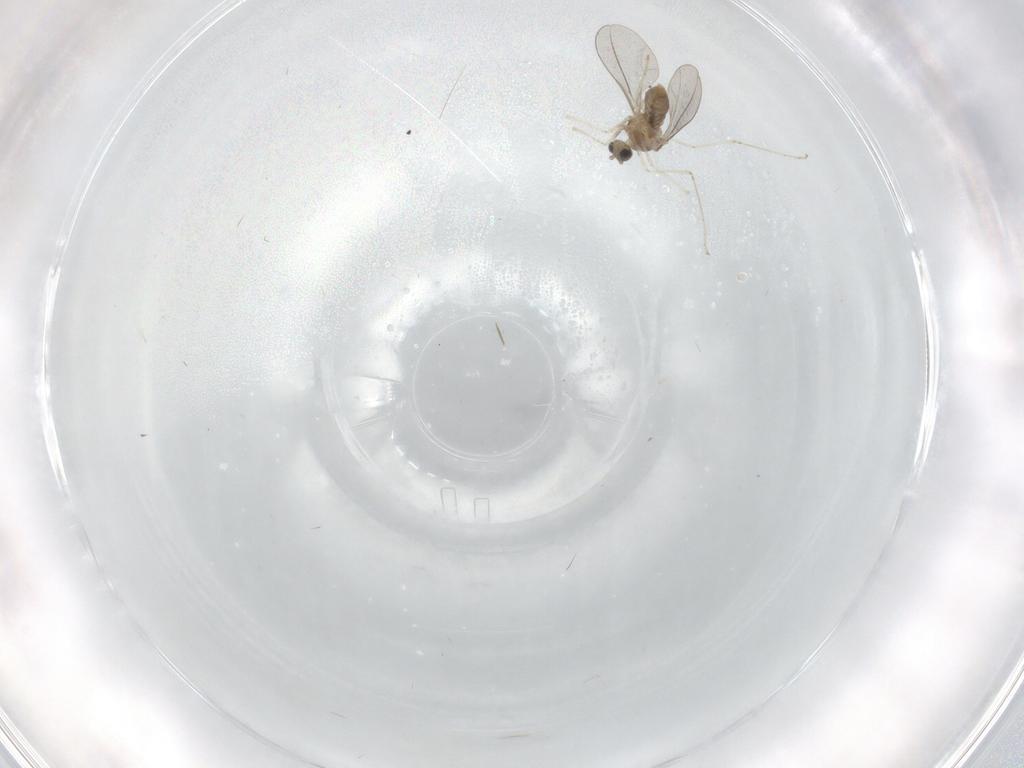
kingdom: Animalia
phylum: Arthropoda
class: Insecta
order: Diptera
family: Cecidomyiidae
